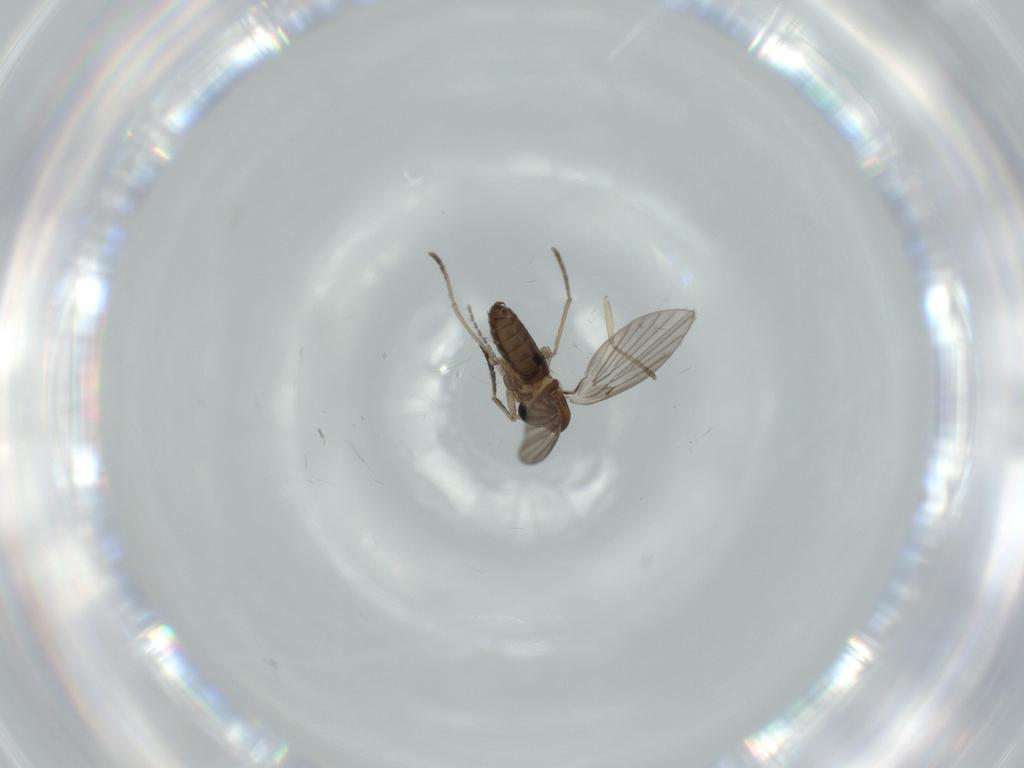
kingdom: Animalia
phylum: Arthropoda
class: Insecta
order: Diptera
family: Psychodidae
